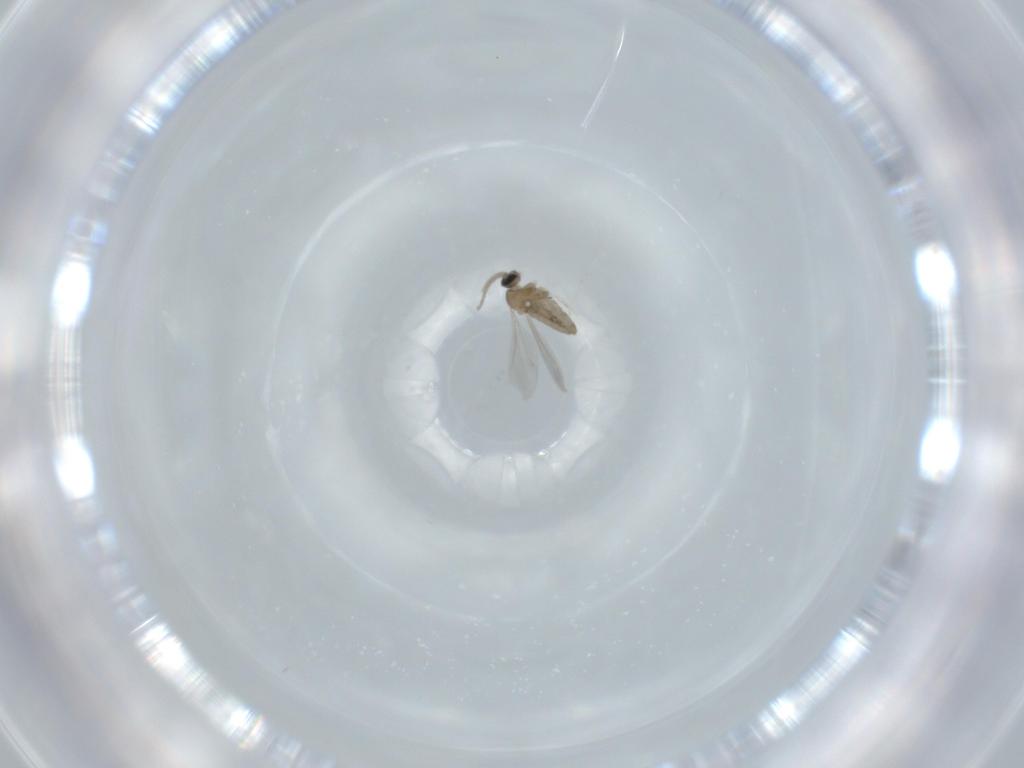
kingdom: Animalia
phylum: Arthropoda
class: Insecta
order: Diptera
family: Cecidomyiidae
